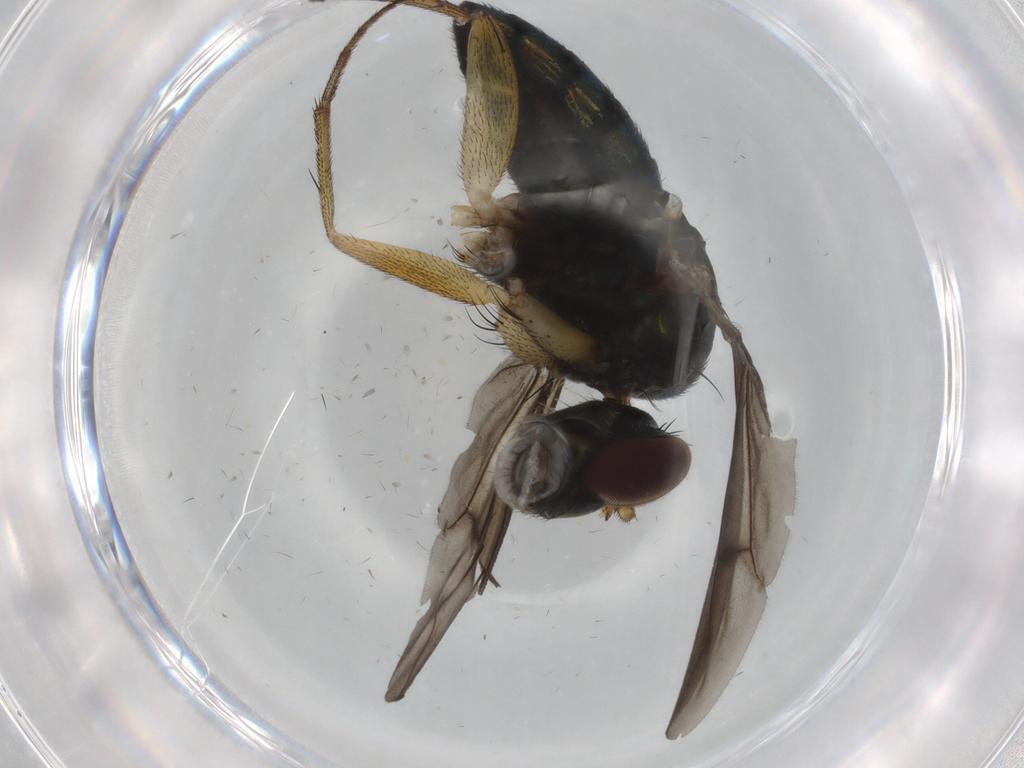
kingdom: Animalia
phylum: Arthropoda
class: Insecta
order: Diptera
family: Dolichopodidae
